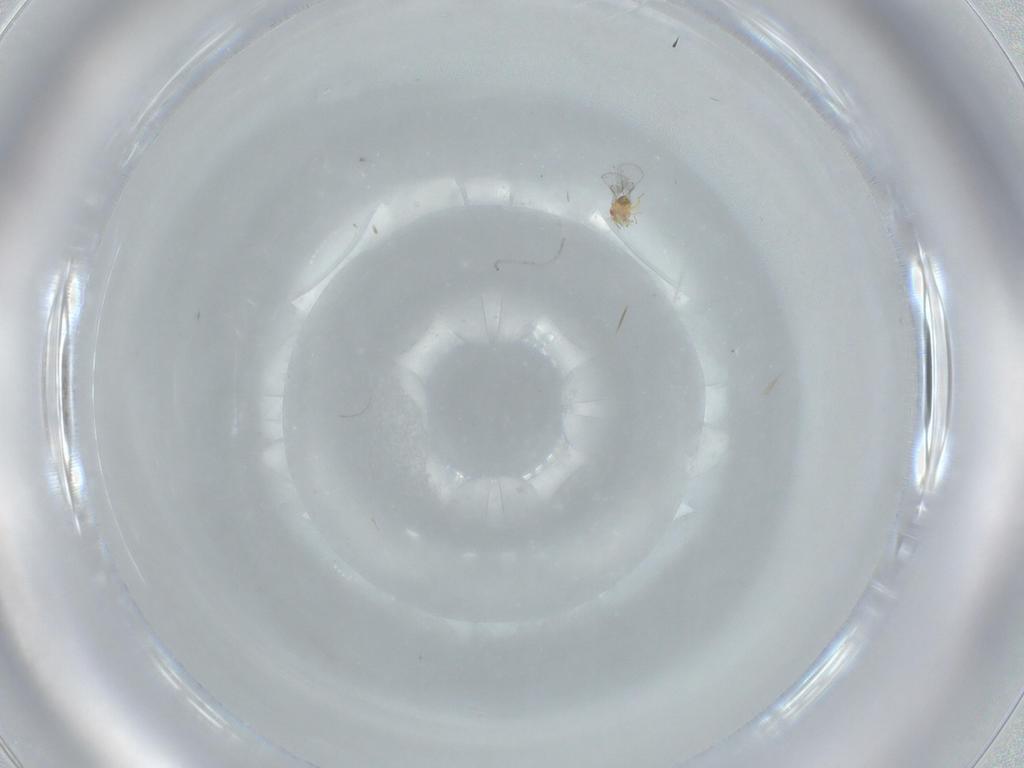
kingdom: Animalia
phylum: Arthropoda
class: Insecta
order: Hymenoptera
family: Trichogrammatidae
